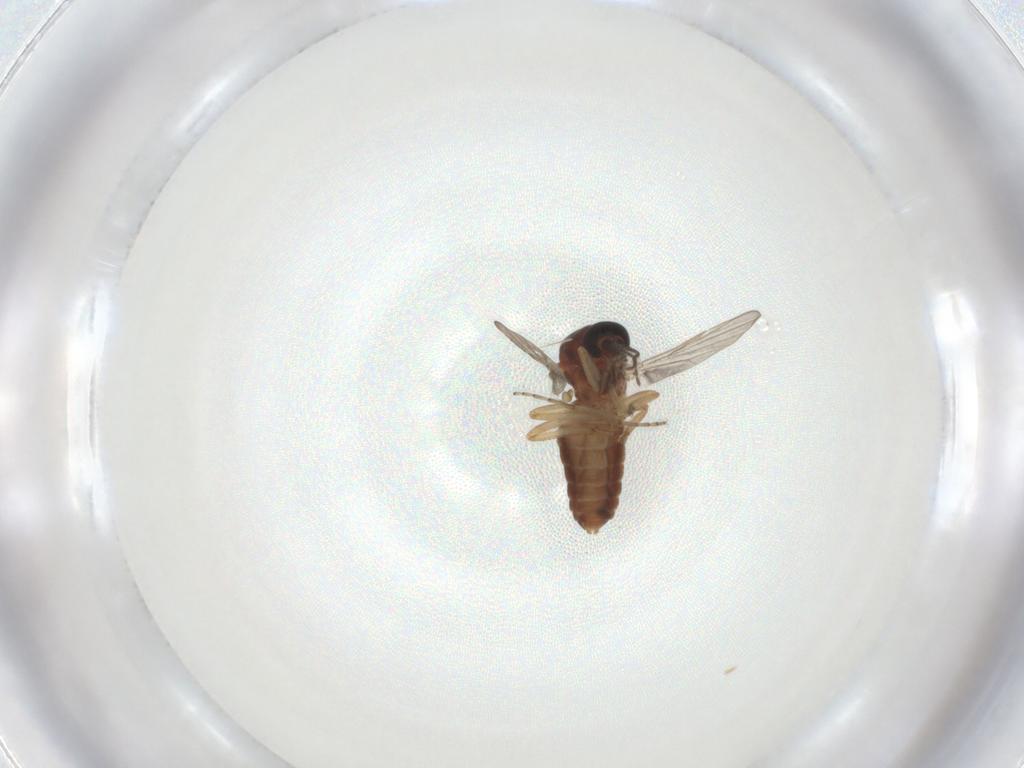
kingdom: Animalia
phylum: Arthropoda
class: Insecta
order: Diptera
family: Ceratopogonidae
